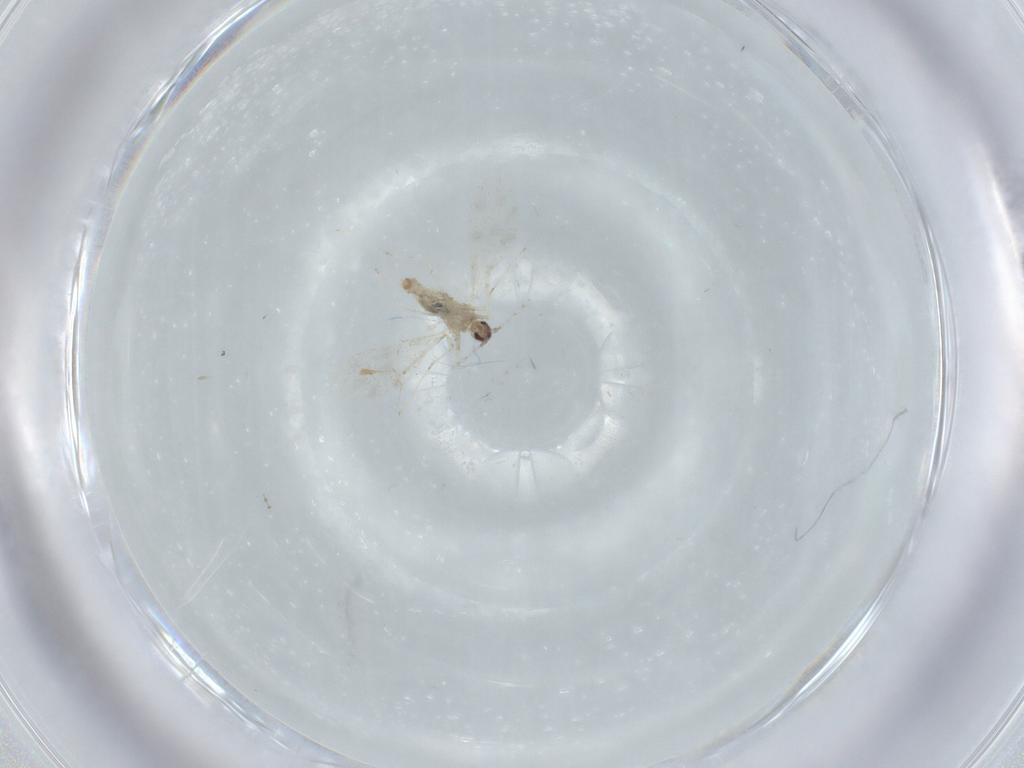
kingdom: Animalia
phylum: Arthropoda
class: Insecta
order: Diptera
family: Cecidomyiidae
